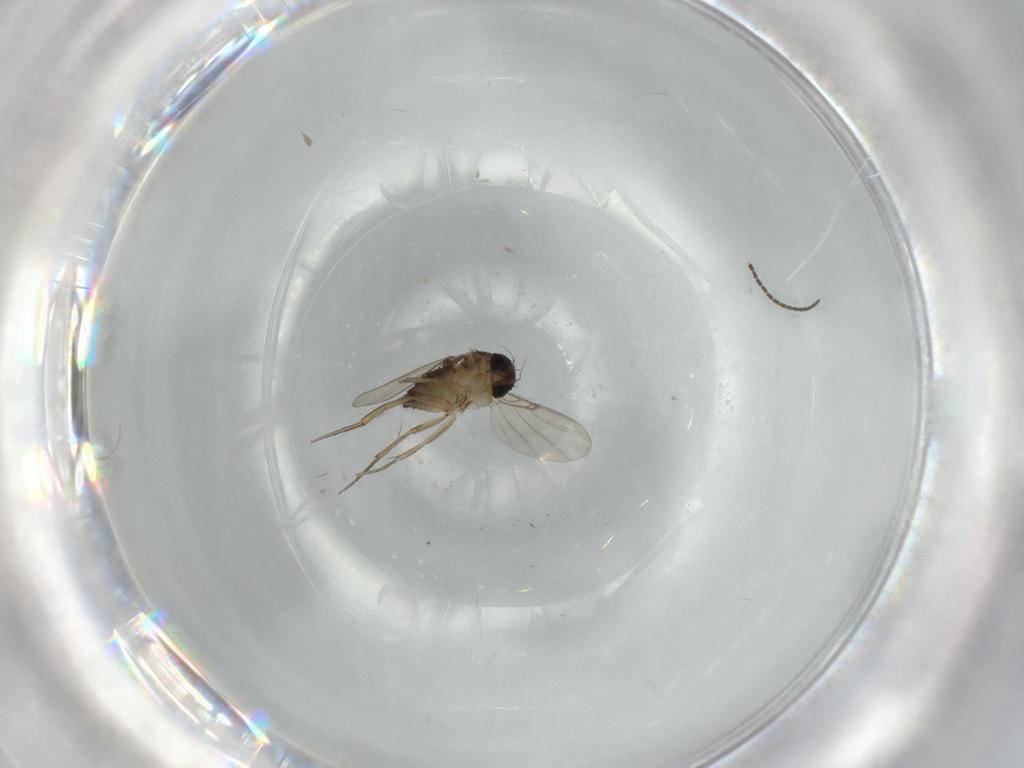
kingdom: Animalia
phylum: Arthropoda
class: Insecta
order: Diptera
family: Phoridae
